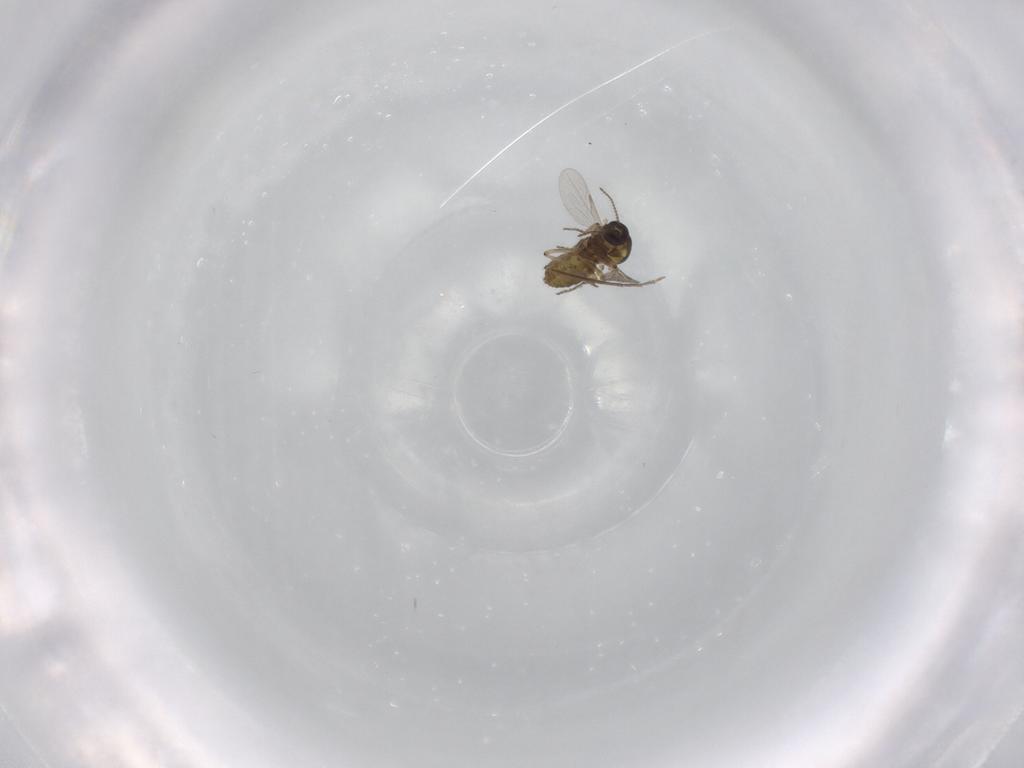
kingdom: Animalia
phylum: Arthropoda
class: Insecta
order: Diptera
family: Ceratopogonidae
